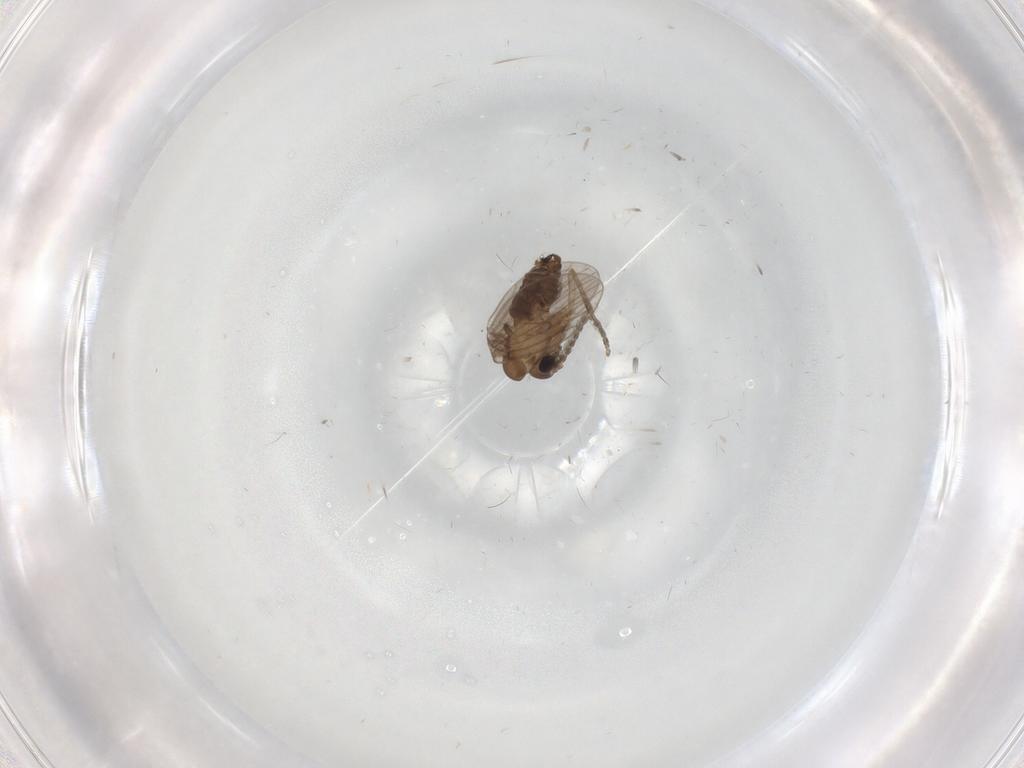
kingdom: Animalia
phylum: Arthropoda
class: Insecta
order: Diptera
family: Cecidomyiidae
